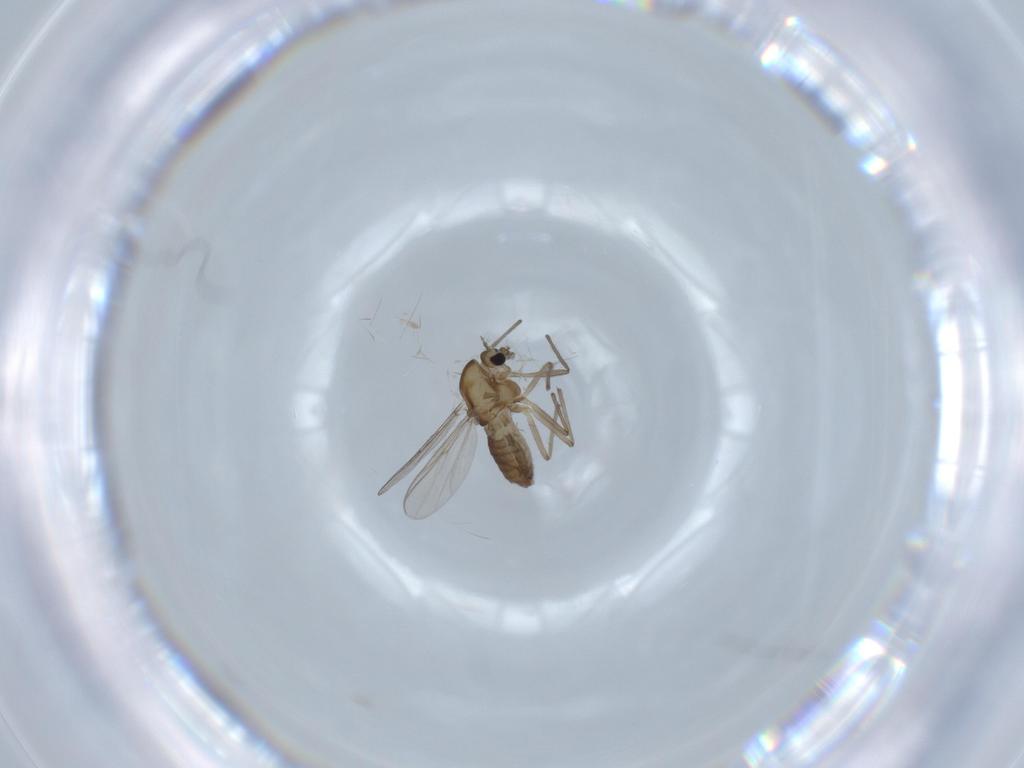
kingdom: Animalia
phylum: Arthropoda
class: Insecta
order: Diptera
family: Chironomidae
